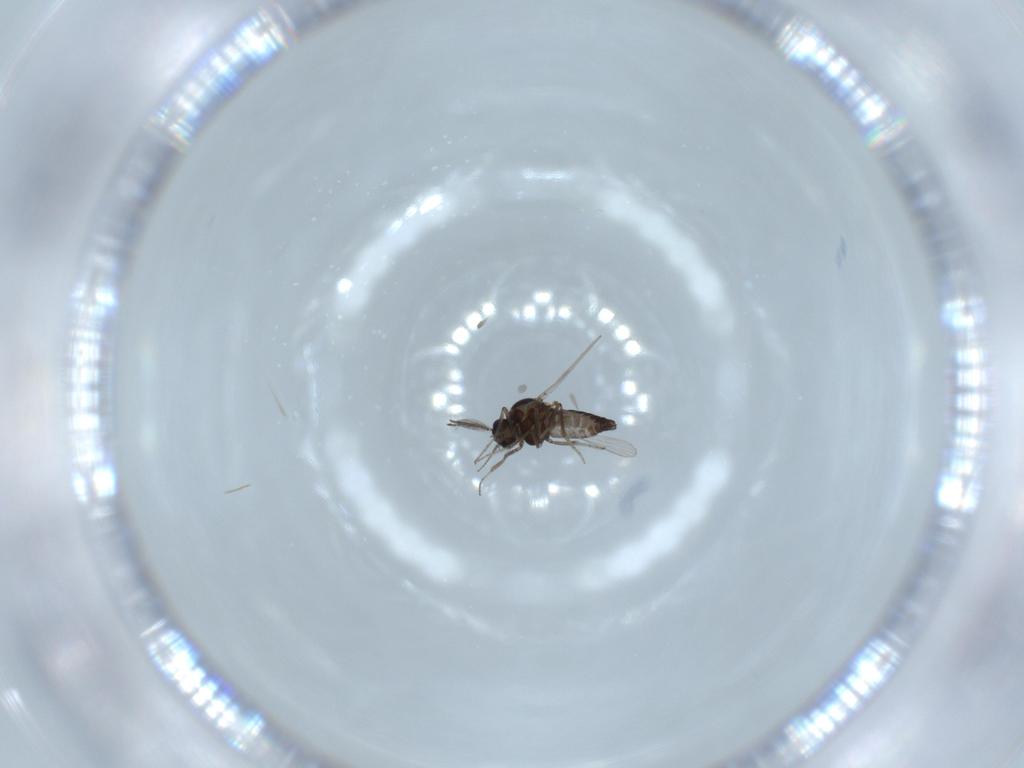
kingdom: Animalia
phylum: Arthropoda
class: Insecta
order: Diptera
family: Ceratopogonidae
